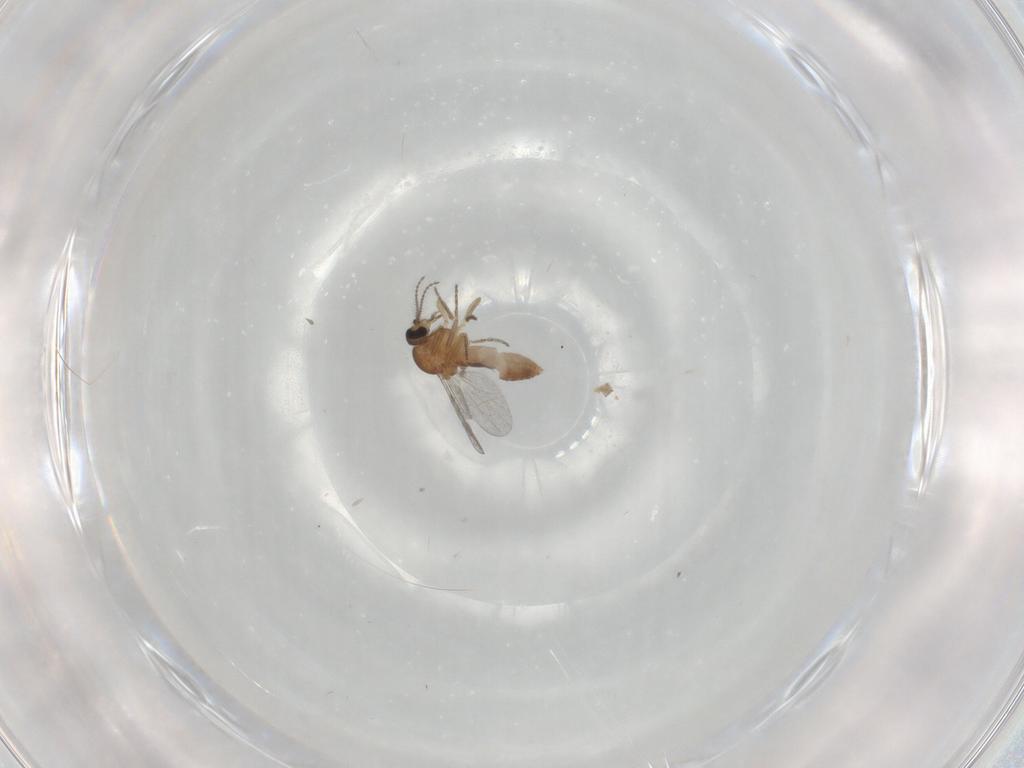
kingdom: Animalia
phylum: Arthropoda
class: Insecta
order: Diptera
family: Ceratopogonidae
